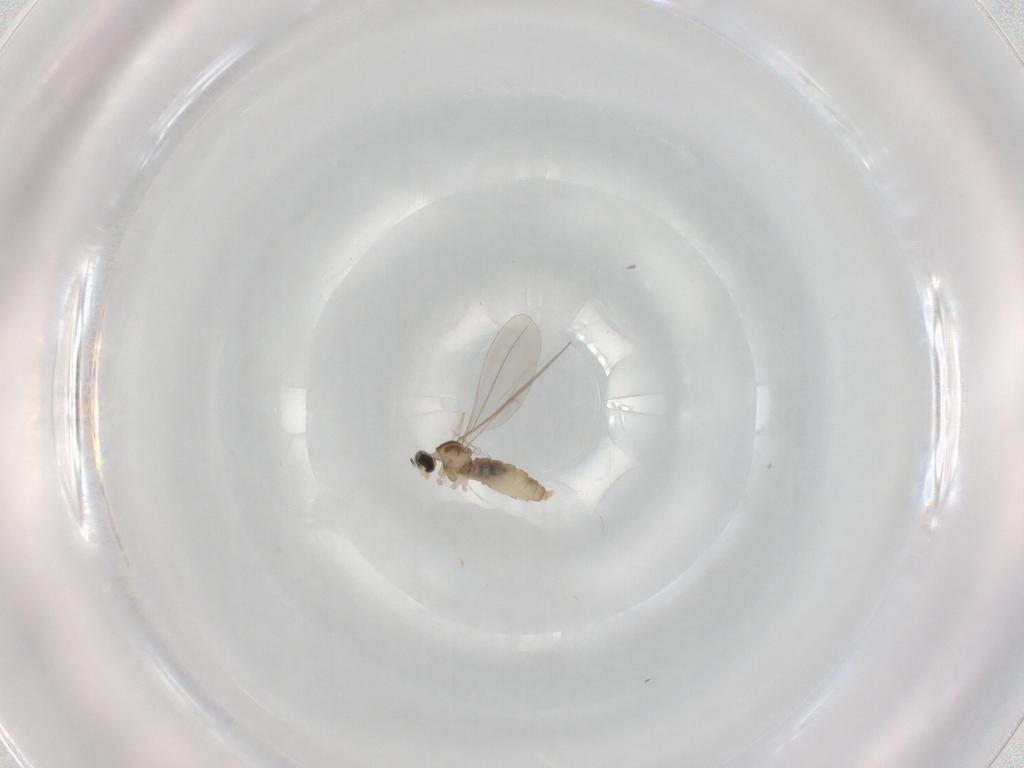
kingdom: Animalia
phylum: Arthropoda
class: Insecta
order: Diptera
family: Cecidomyiidae
